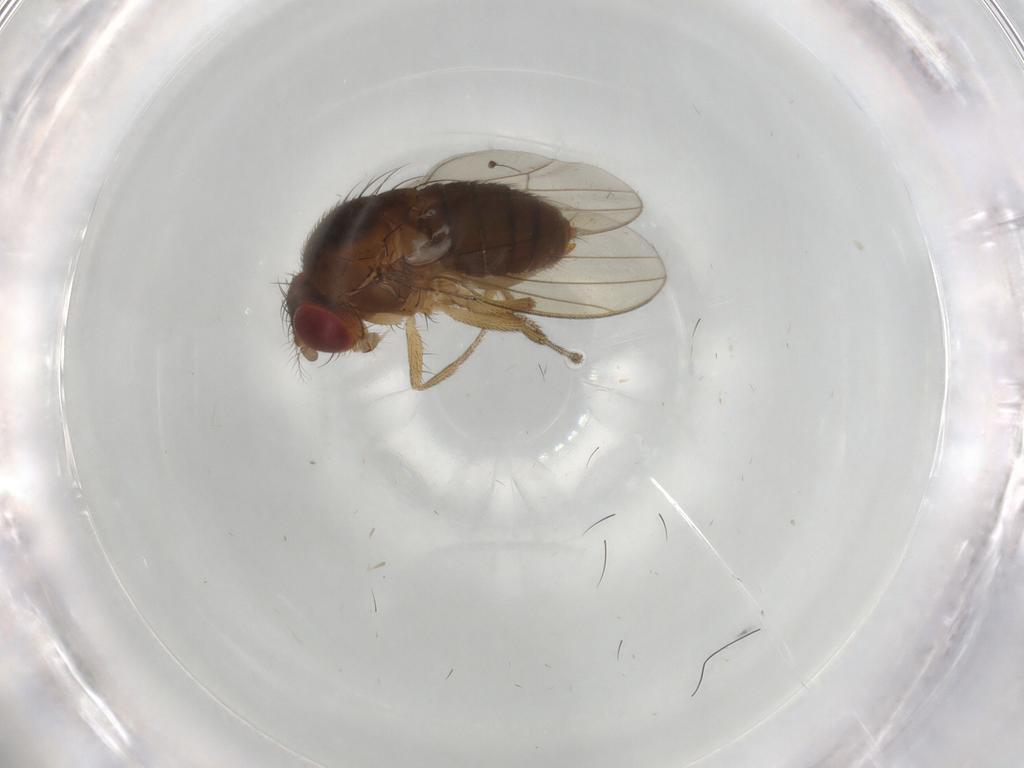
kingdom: Animalia
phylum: Arthropoda
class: Insecta
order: Diptera
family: Drosophilidae
